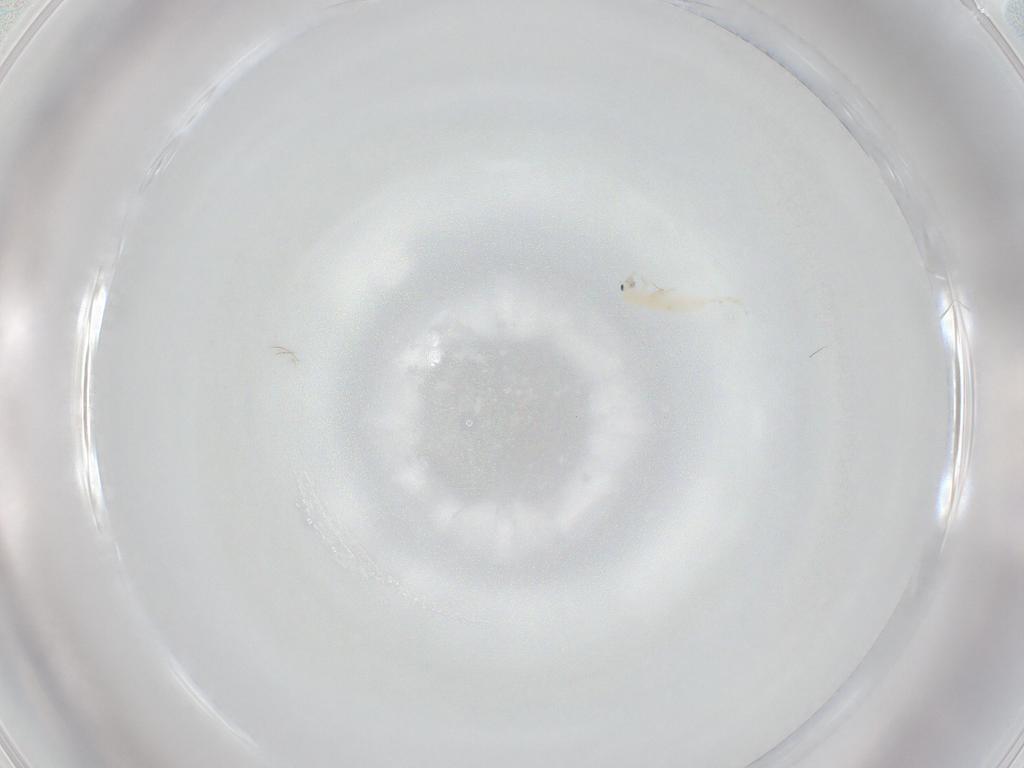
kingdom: Animalia
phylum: Arthropoda
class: Collembola
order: Entomobryomorpha
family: Entomobryidae
